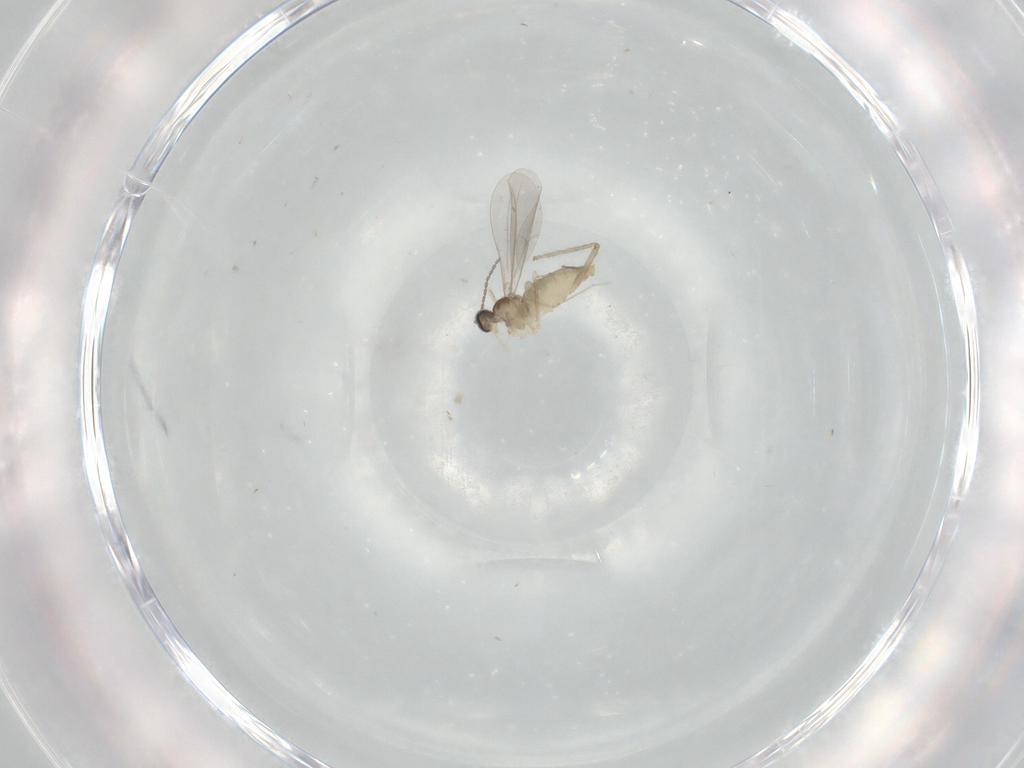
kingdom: Animalia
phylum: Arthropoda
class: Insecta
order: Diptera
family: Cecidomyiidae
